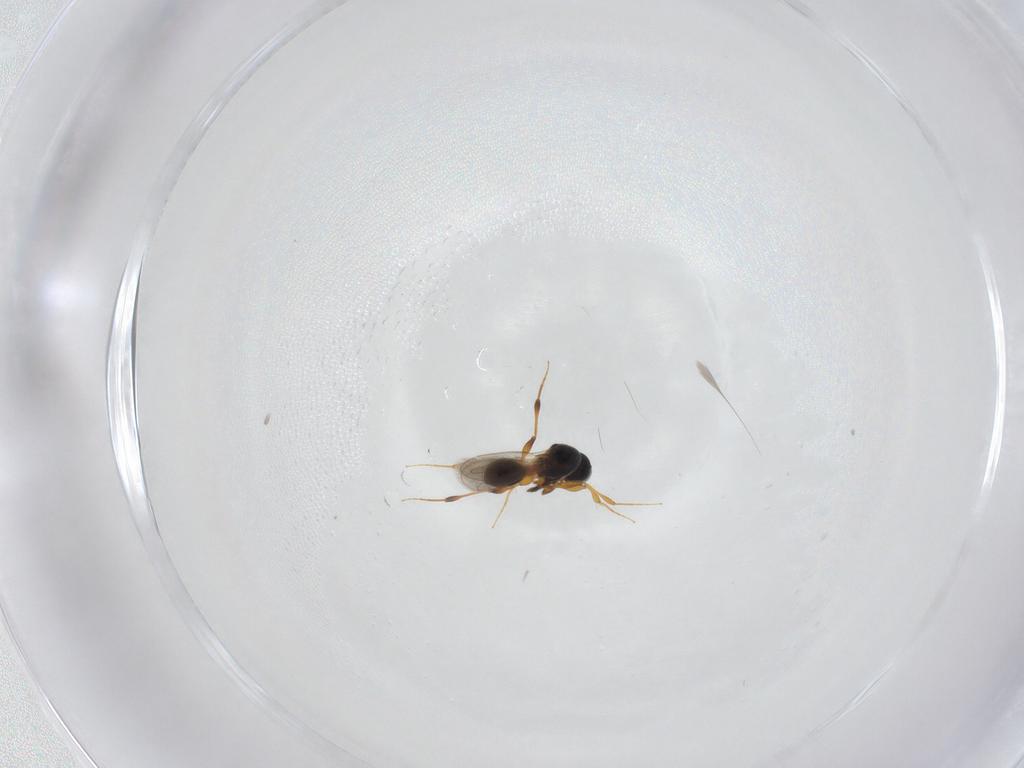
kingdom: Animalia
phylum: Arthropoda
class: Insecta
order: Hymenoptera
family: Platygastridae
